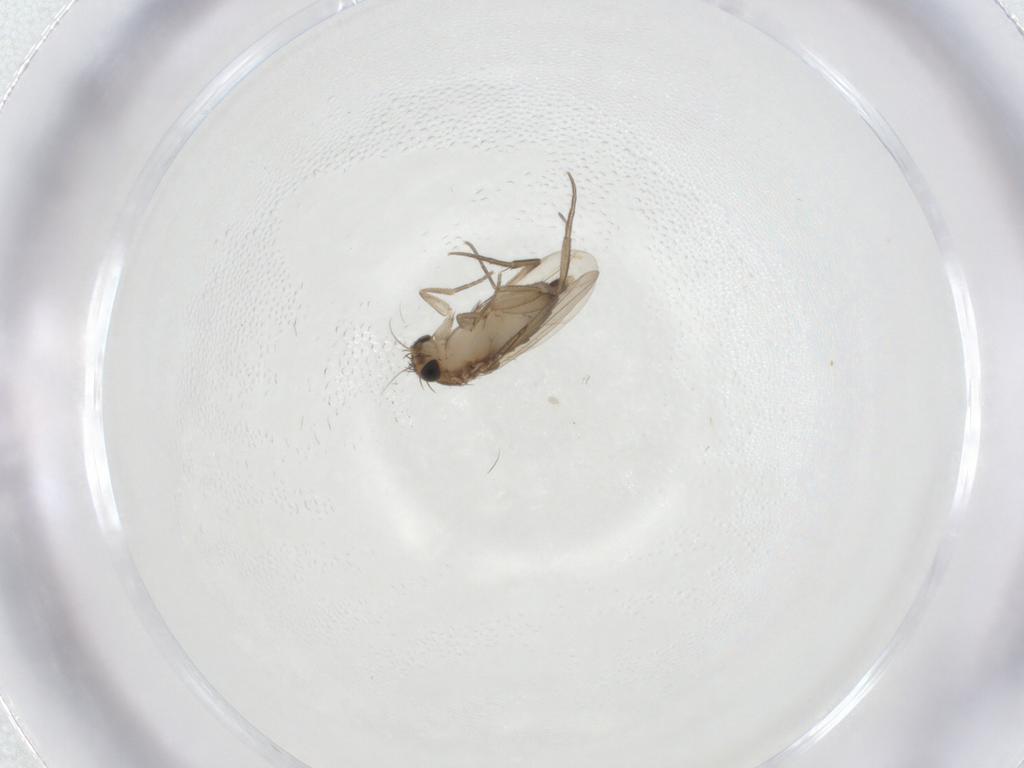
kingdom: Animalia
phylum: Arthropoda
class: Insecta
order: Diptera
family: Phoridae
